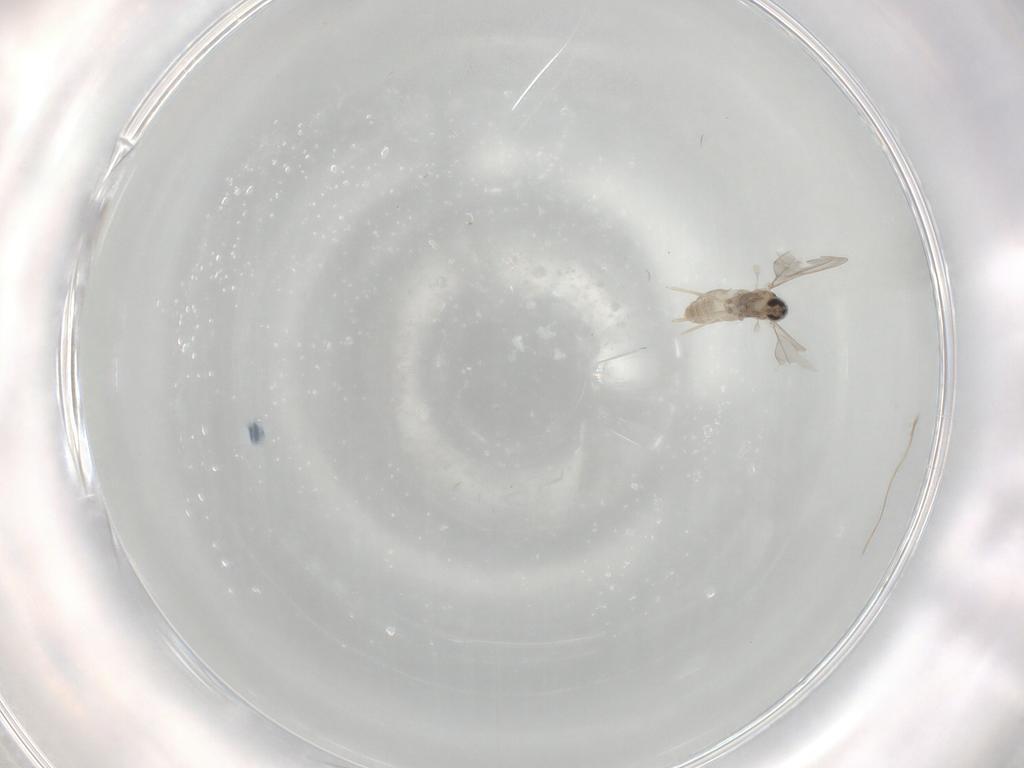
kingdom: Animalia
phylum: Arthropoda
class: Insecta
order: Diptera
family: Cecidomyiidae
